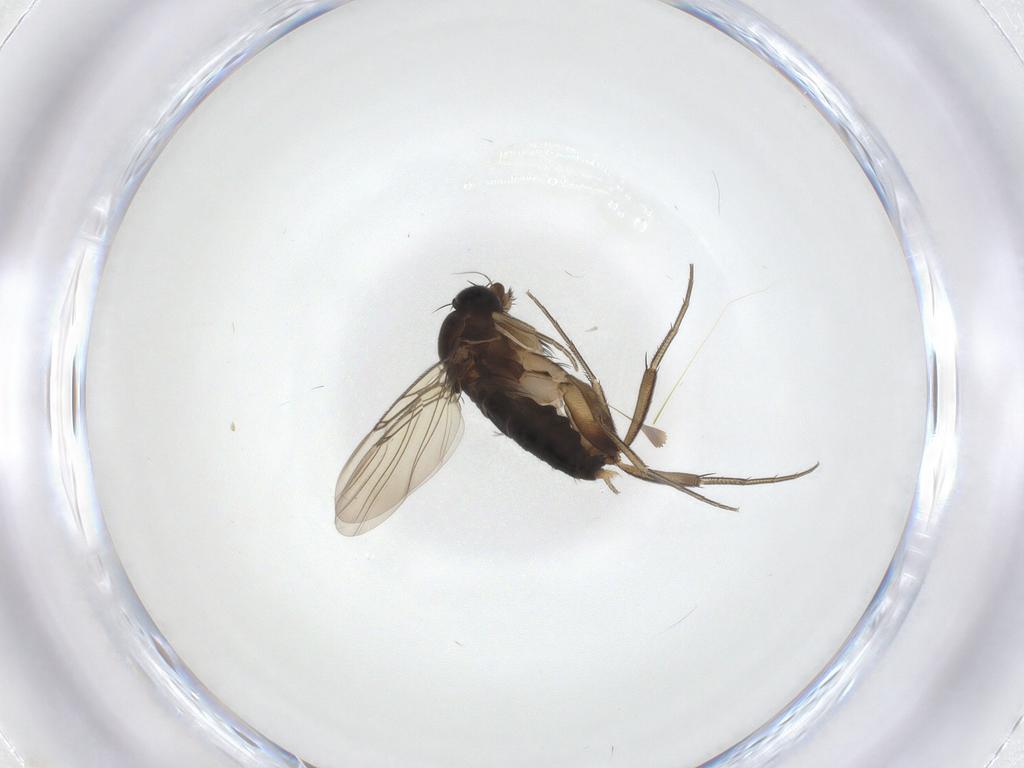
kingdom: Animalia
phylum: Arthropoda
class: Insecta
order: Diptera
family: Phoridae
